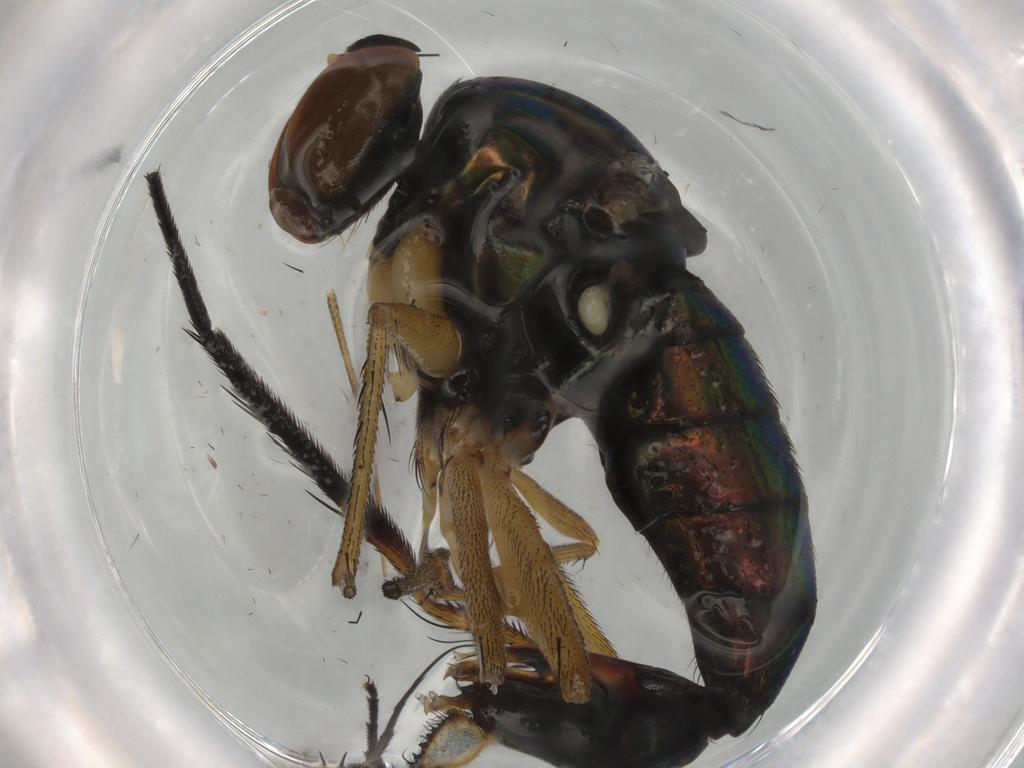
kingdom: Animalia
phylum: Arthropoda
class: Insecta
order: Diptera
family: Dolichopodidae
